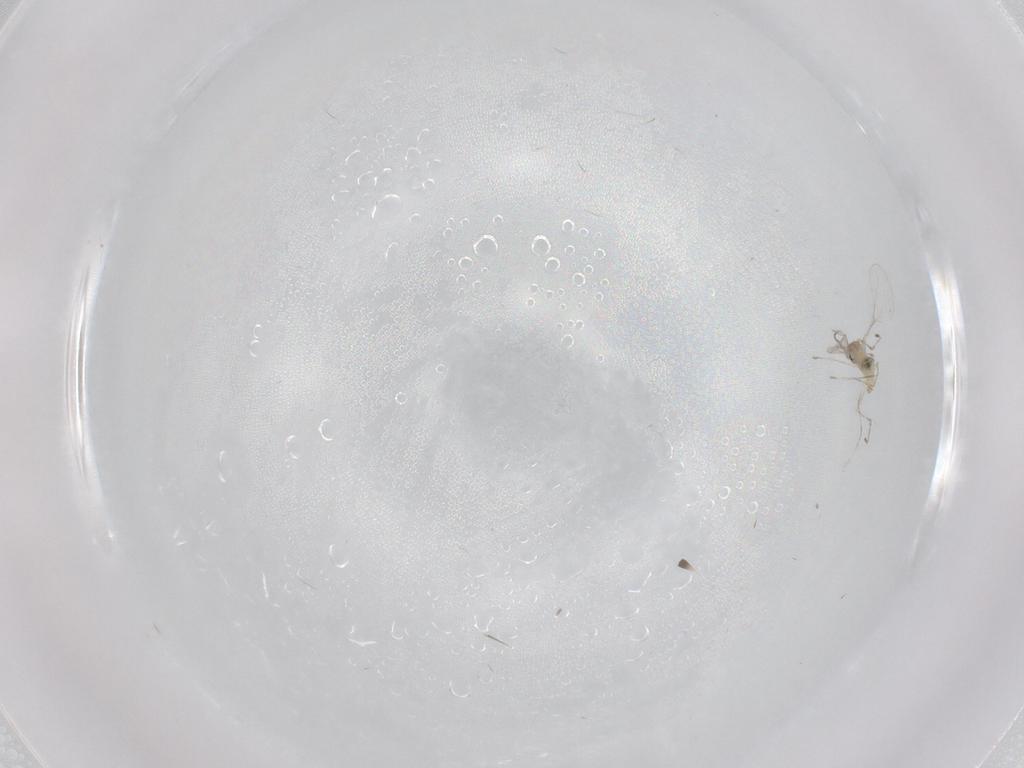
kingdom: Animalia
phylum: Arthropoda
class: Insecta
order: Diptera
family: Cecidomyiidae
